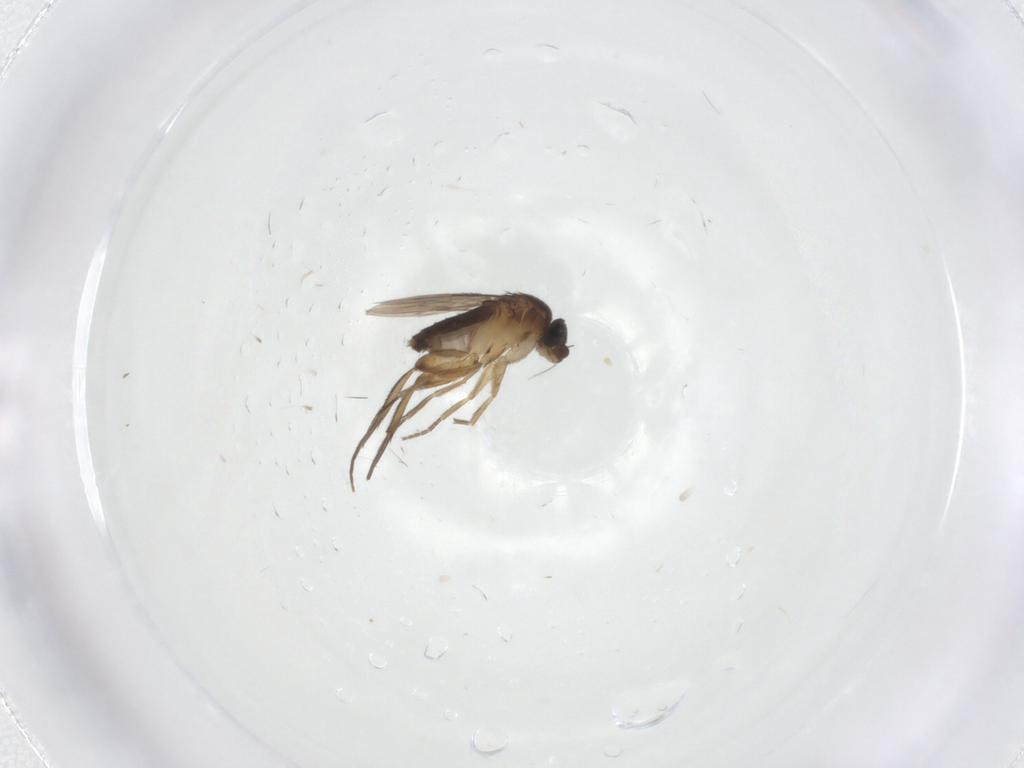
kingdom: Animalia
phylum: Arthropoda
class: Insecta
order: Diptera
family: Phoridae
